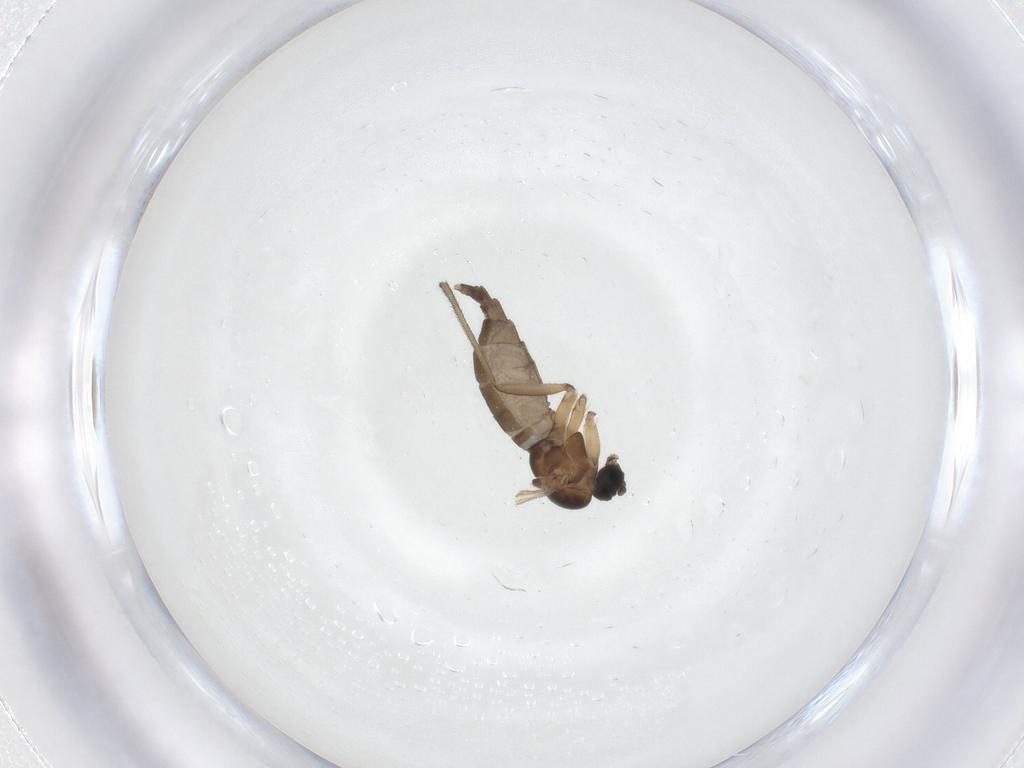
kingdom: Animalia
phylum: Arthropoda
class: Insecta
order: Diptera
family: Sciaridae
